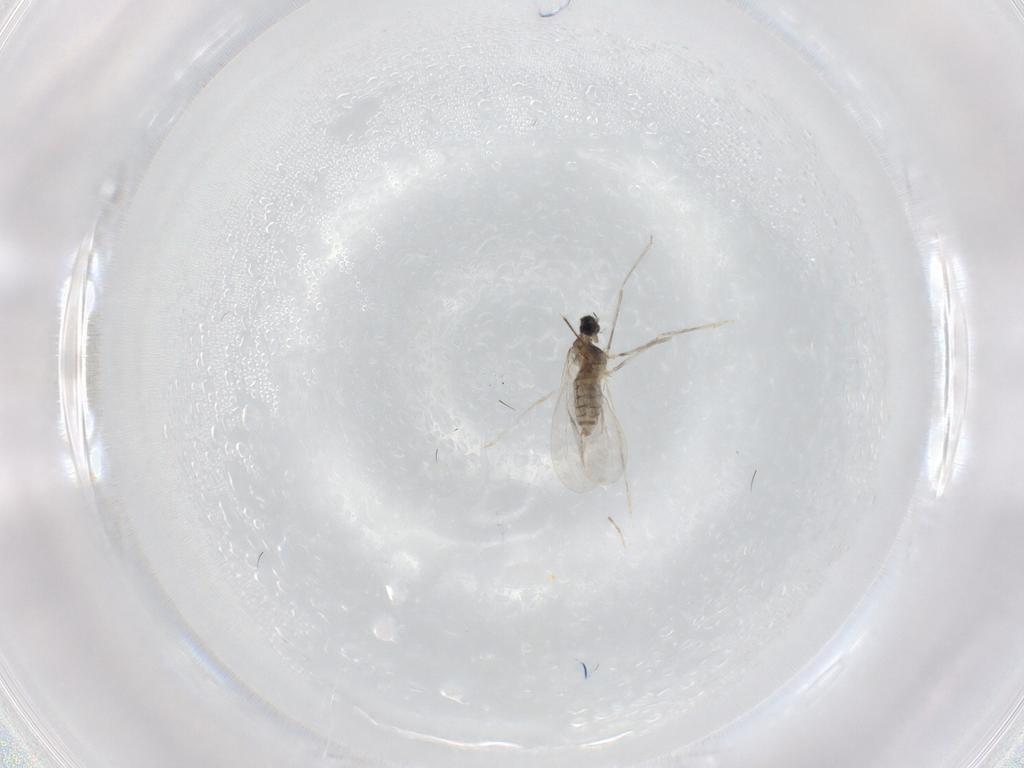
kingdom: Animalia
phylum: Arthropoda
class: Insecta
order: Diptera
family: Cecidomyiidae
